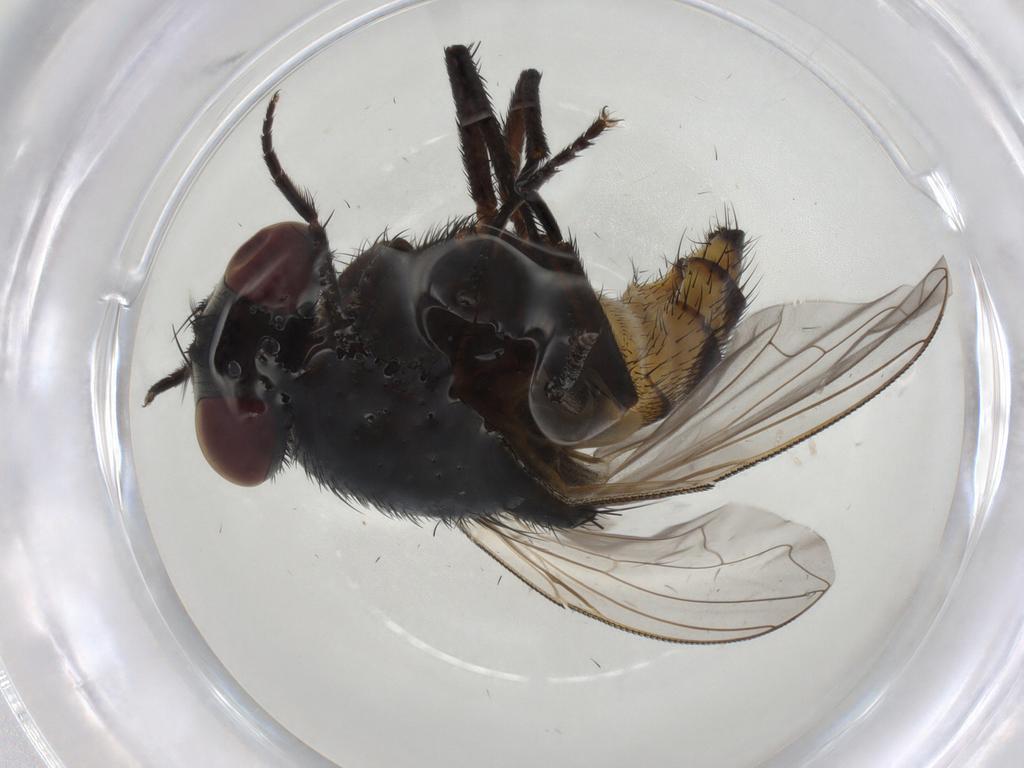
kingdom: Animalia
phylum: Arthropoda
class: Insecta
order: Diptera
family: Muscidae
